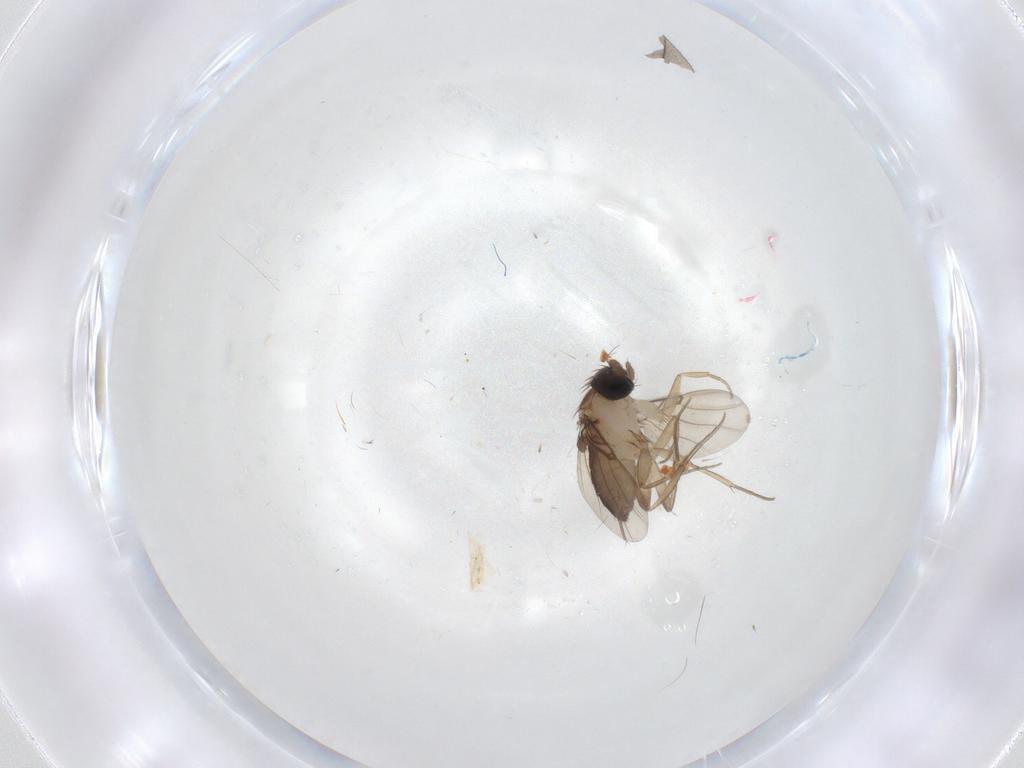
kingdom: Animalia
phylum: Arthropoda
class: Insecta
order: Diptera
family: Phoridae
